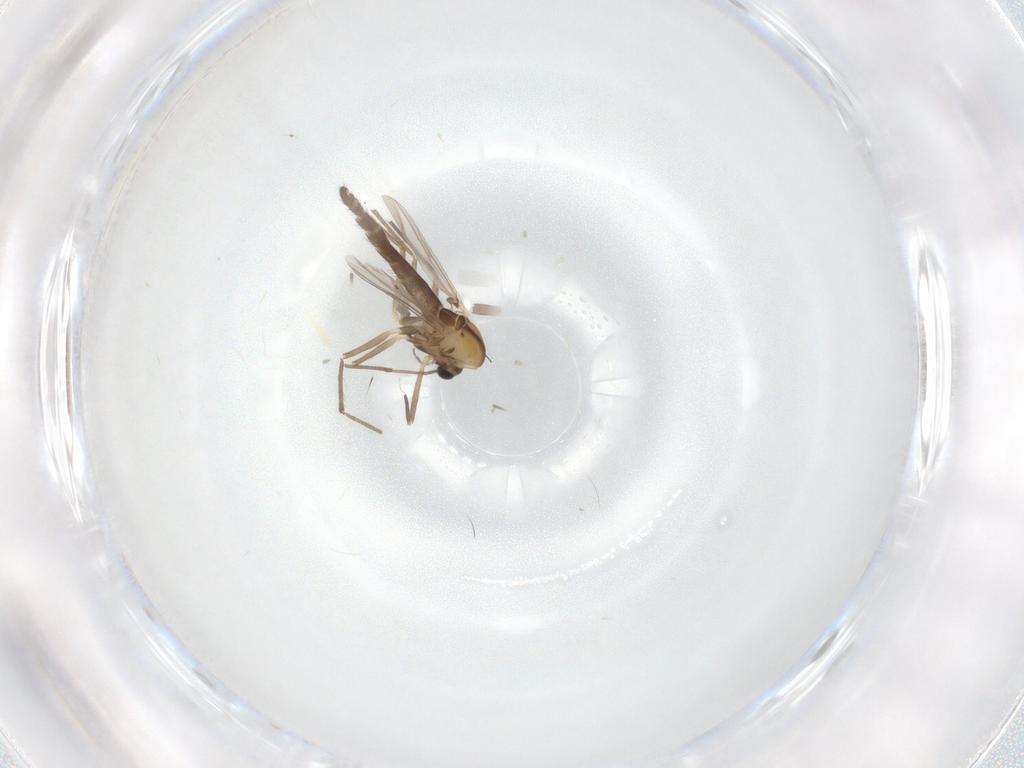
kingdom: Animalia
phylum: Arthropoda
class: Insecta
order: Diptera
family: Chironomidae
